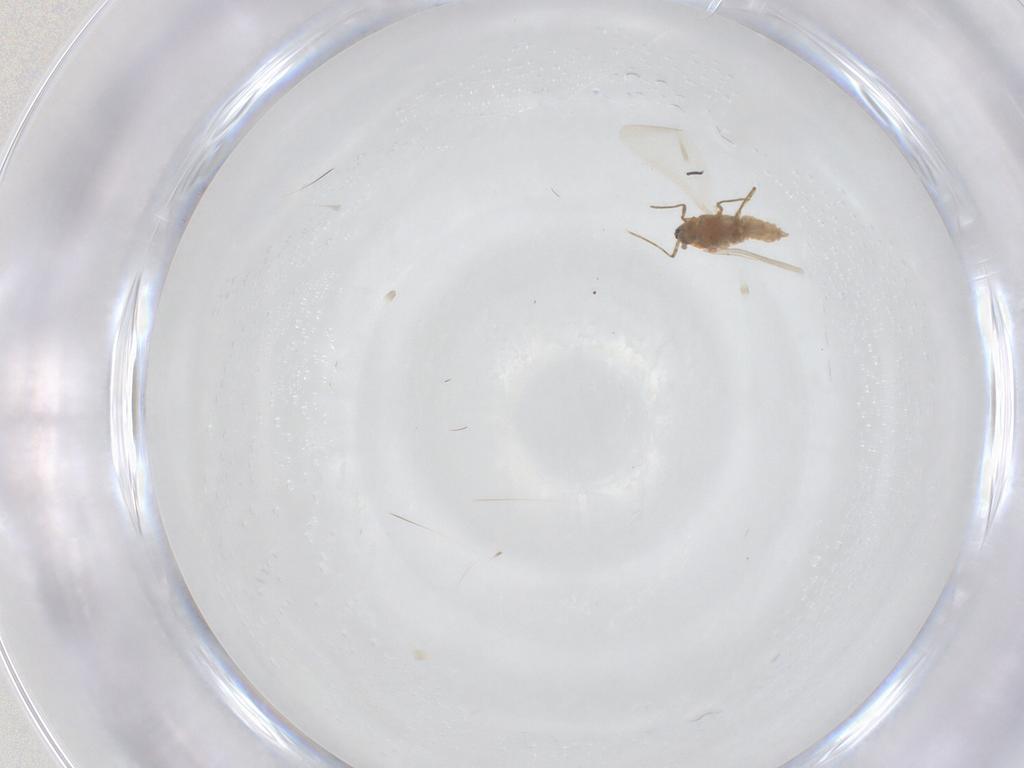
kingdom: Animalia
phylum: Arthropoda
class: Insecta
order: Hemiptera
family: Pseudococcidae
